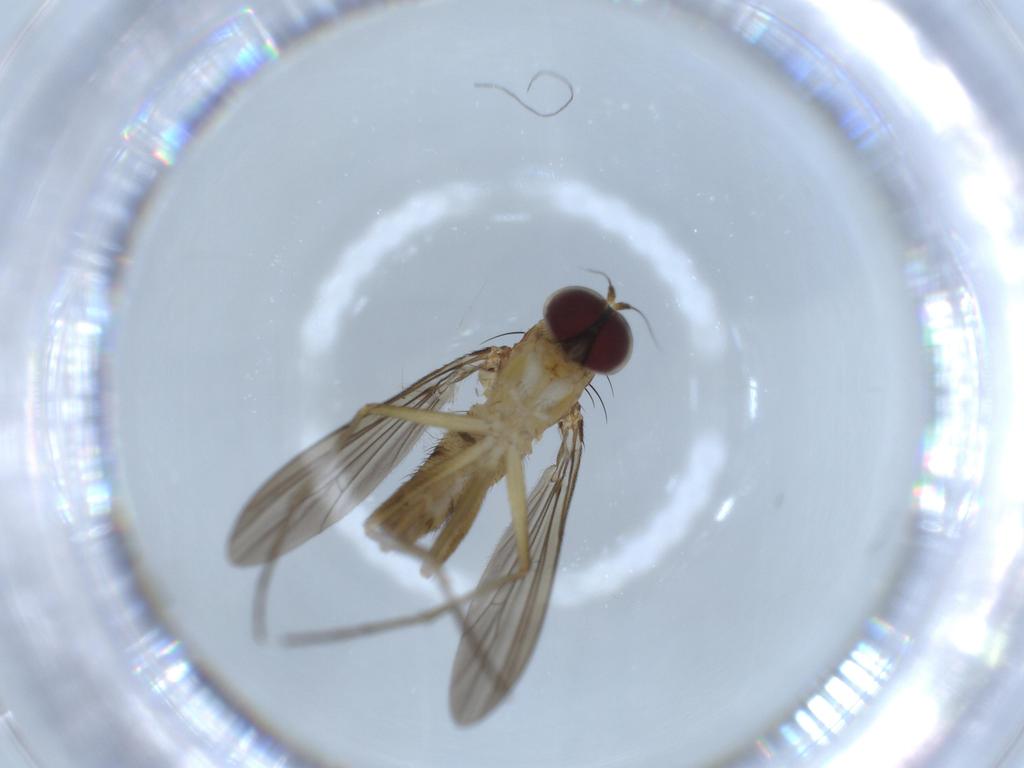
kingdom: Animalia
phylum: Arthropoda
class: Insecta
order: Diptera
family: Dolichopodidae
